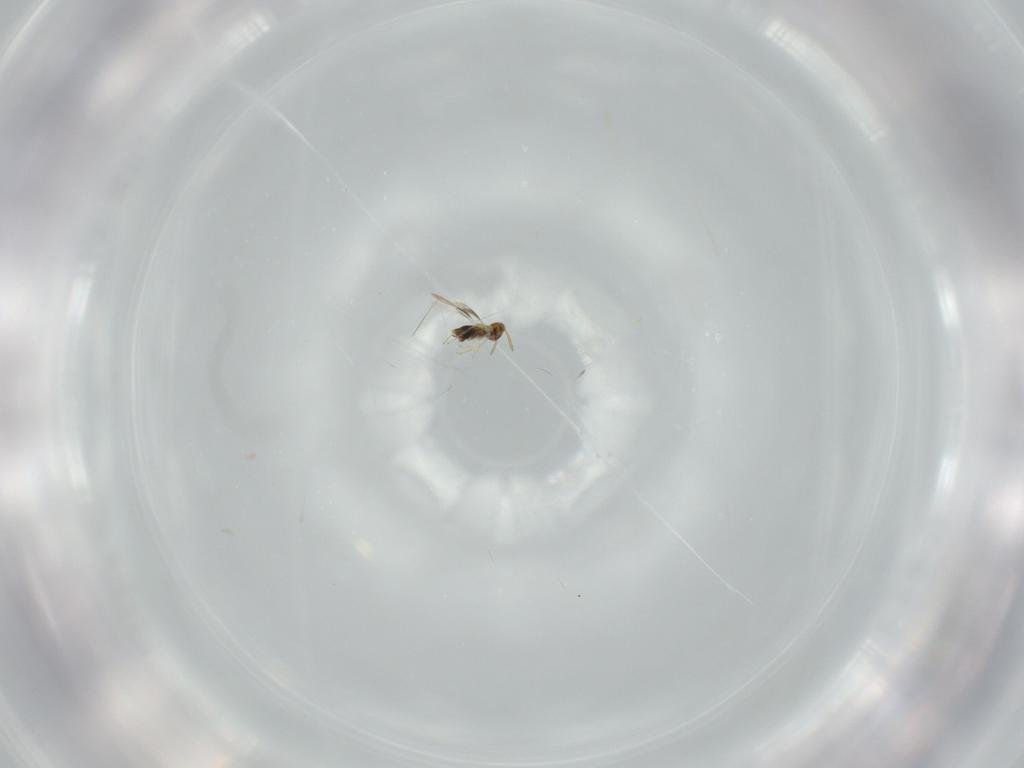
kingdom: Animalia
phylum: Arthropoda
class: Insecta
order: Hymenoptera
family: Aphelinidae
